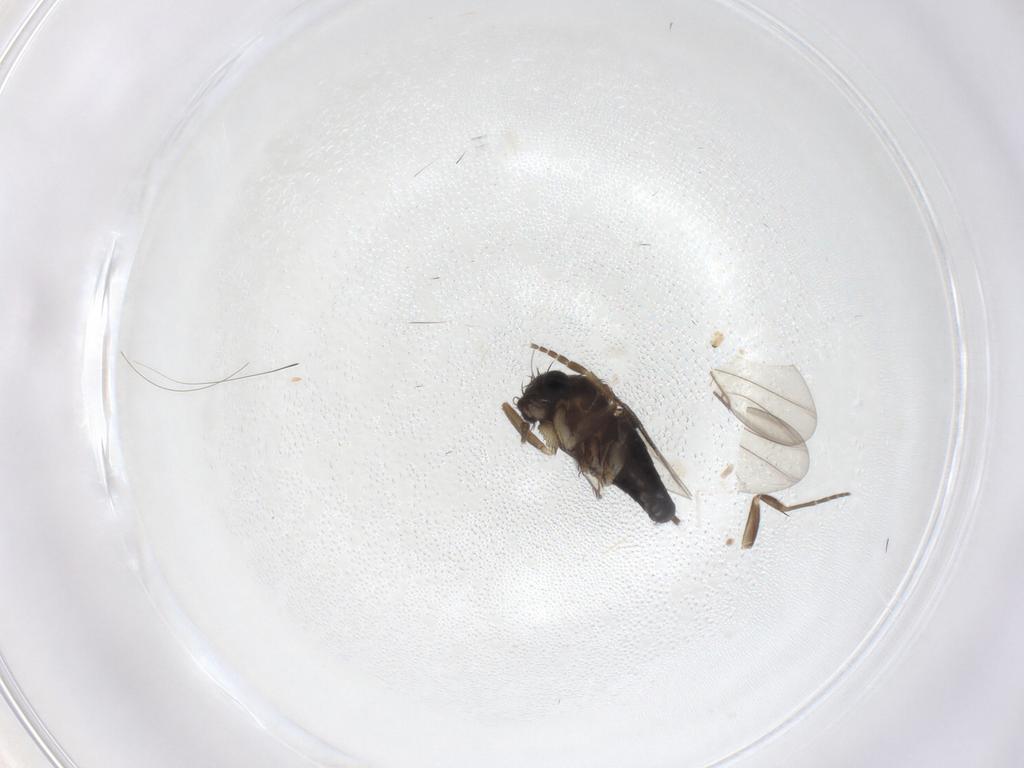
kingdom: Animalia
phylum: Arthropoda
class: Insecta
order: Diptera
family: Phoridae
